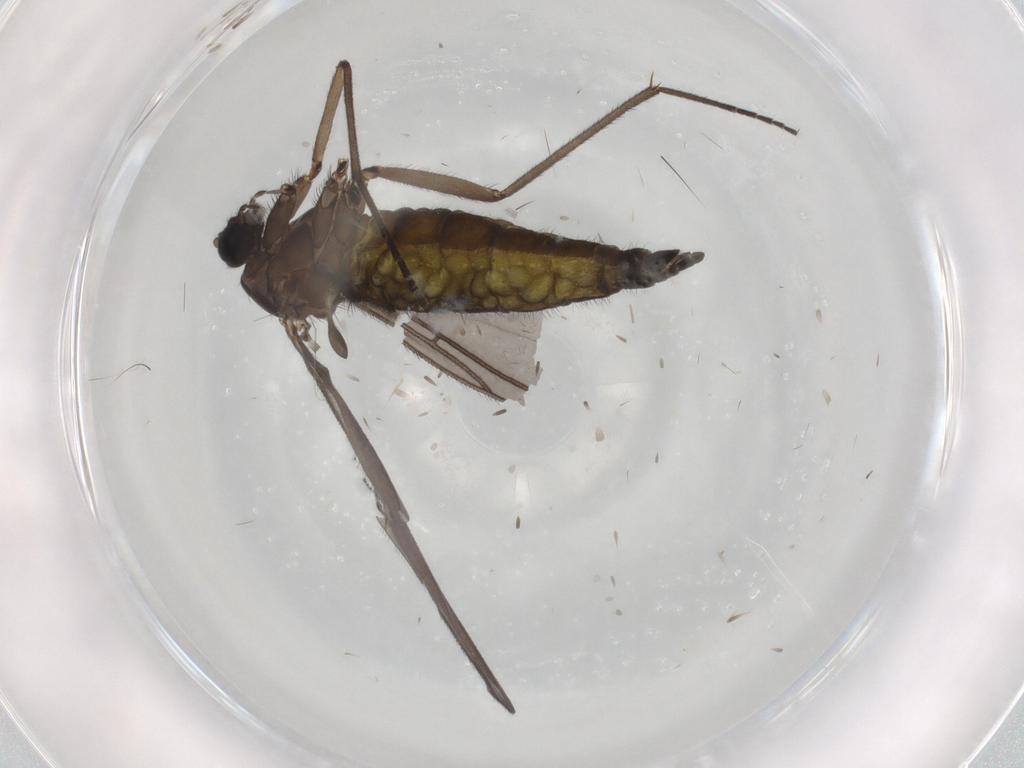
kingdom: Animalia
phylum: Arthropoda
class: Insecta
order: Diptera
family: Sciaridae
